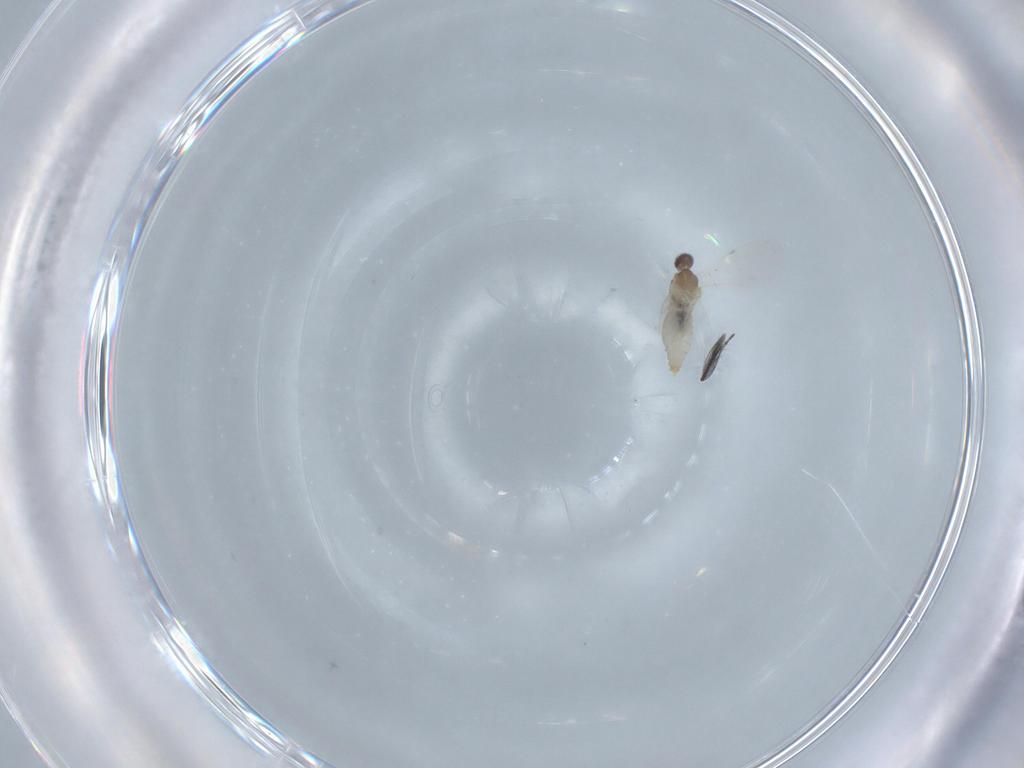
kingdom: Animalia
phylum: Arthropoda
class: Insecta
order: Diptera
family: Cecidomyiidae
